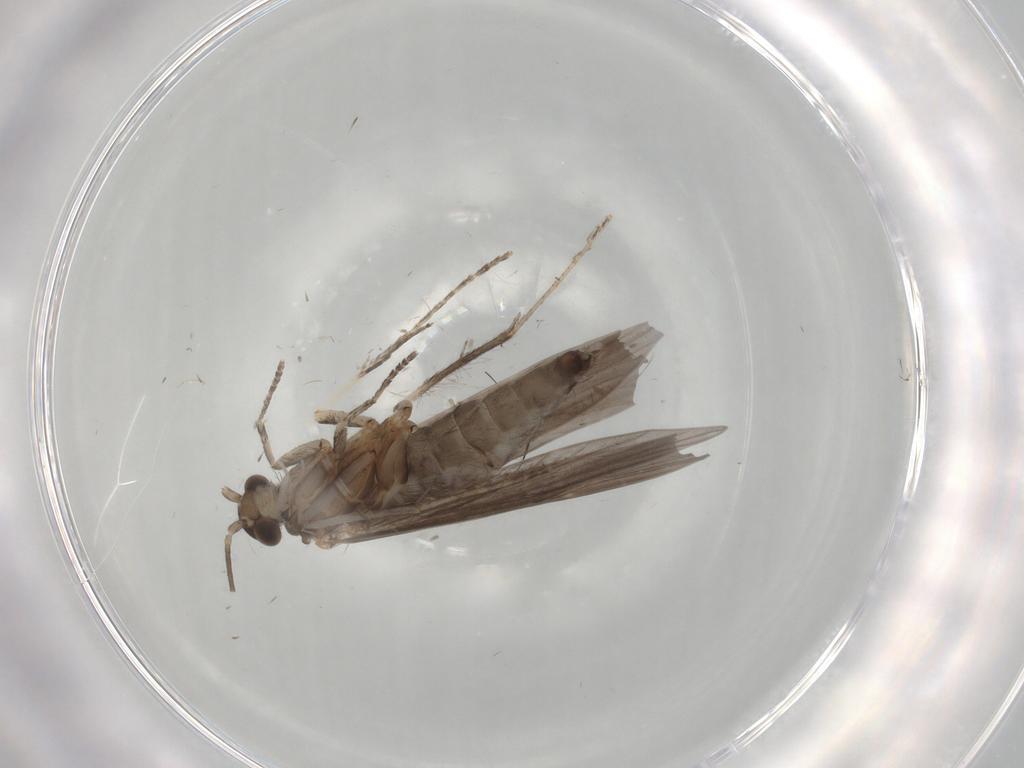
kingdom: Animalia
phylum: Arthropoda
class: Insecta
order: Trichoptera
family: Xiphocentronidae
